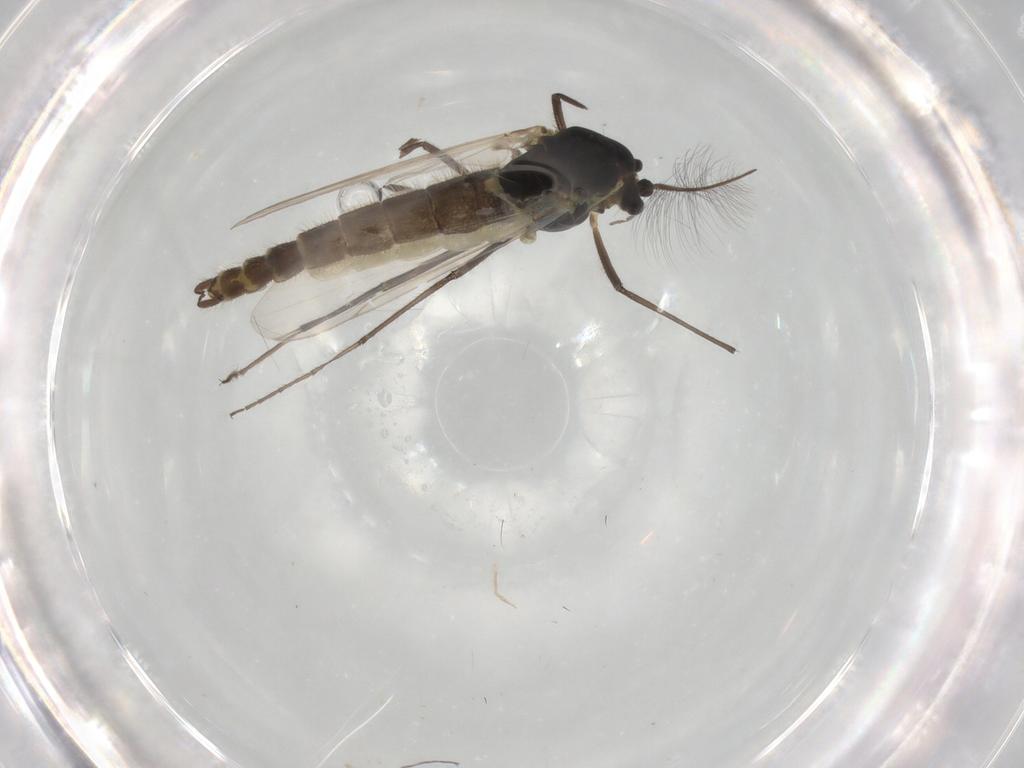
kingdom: Animalia
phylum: Arthropoda
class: Insecta
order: Diptera
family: Chironomidae
